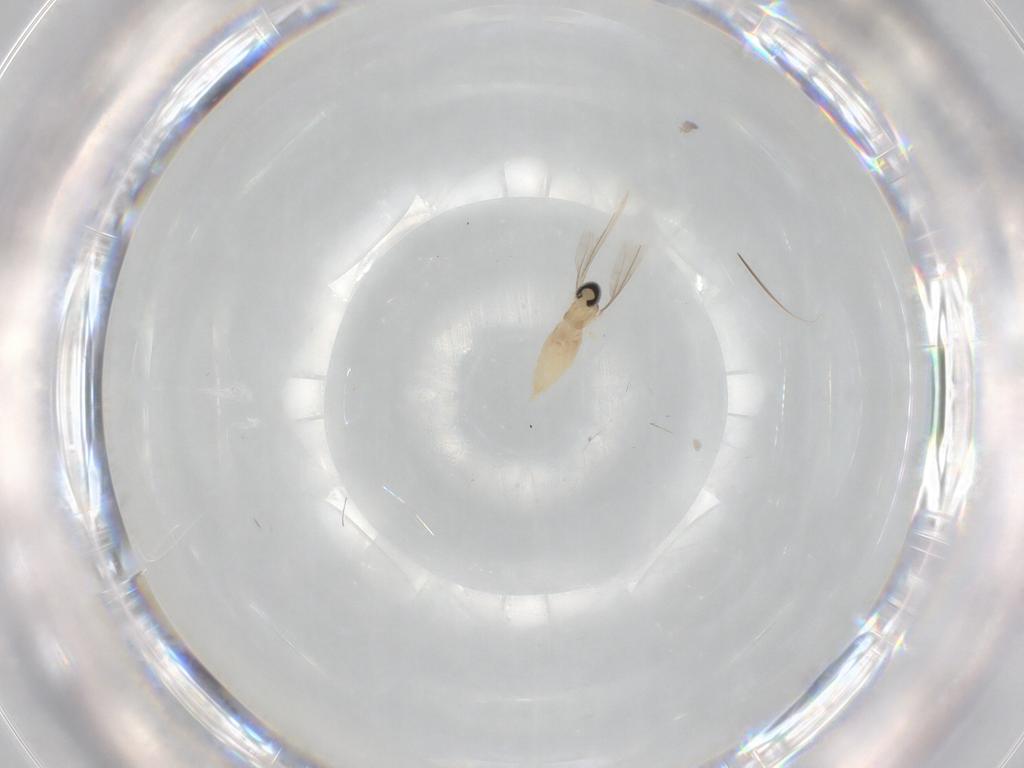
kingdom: Animalia
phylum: Arthropoda
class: Insecta
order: Diptera
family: Cecidomyiidae
